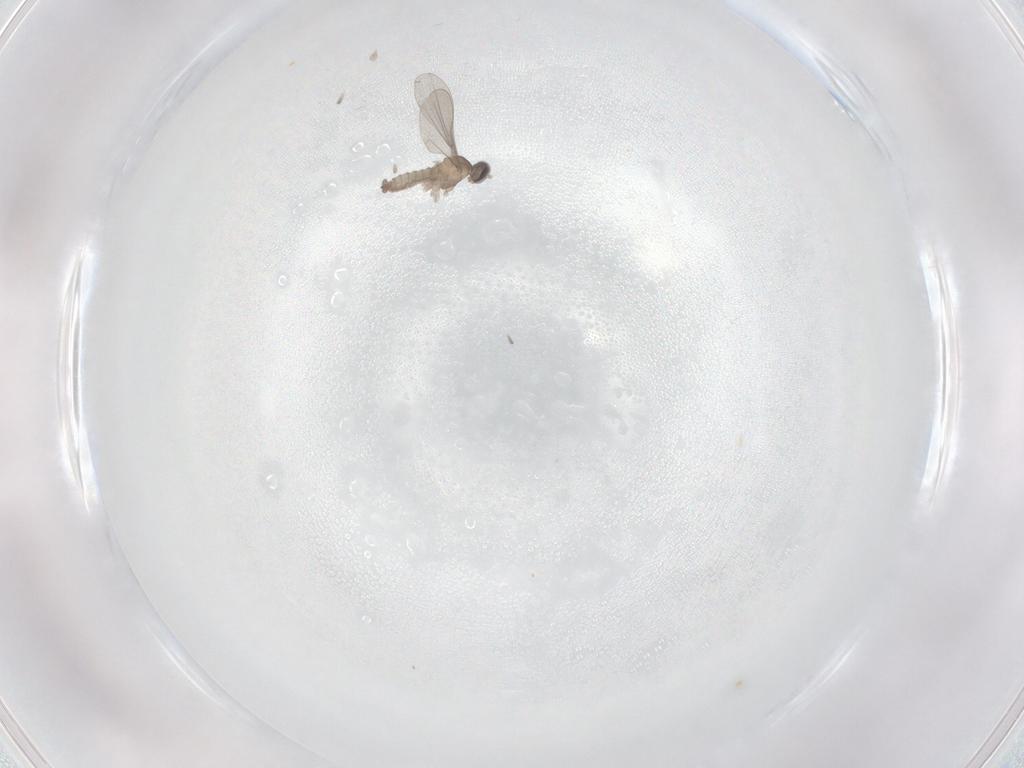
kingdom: Animalia
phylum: Arthropoda
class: Insecta
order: Diptera
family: Cecidomyiidae
